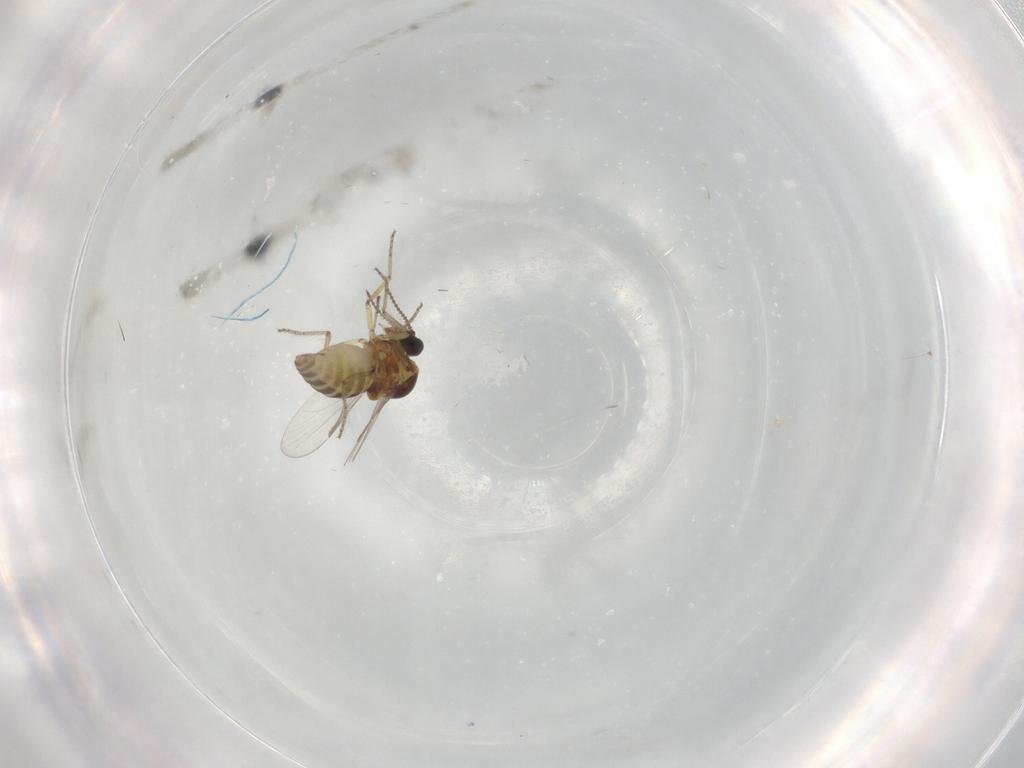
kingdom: Animalia
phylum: Arthropoda
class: Insecta
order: Diptera
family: Ceratopogonidae
